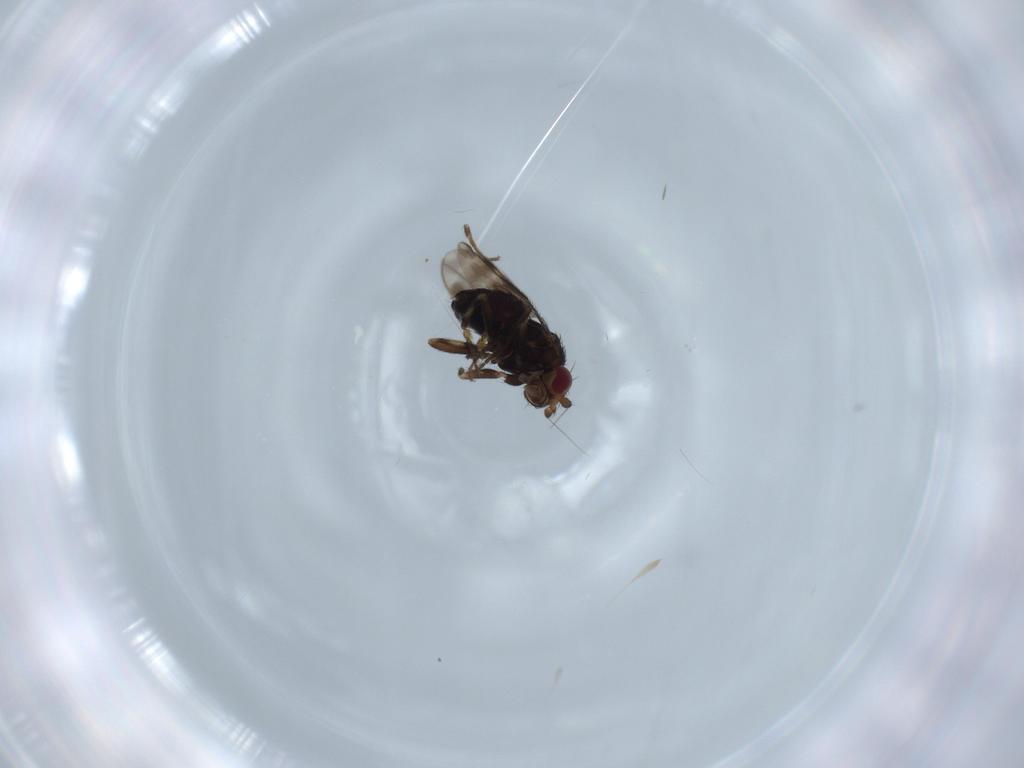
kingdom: Animalia
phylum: Arthropoda
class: Insecta
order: Diptera
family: Sphaeroceridae
